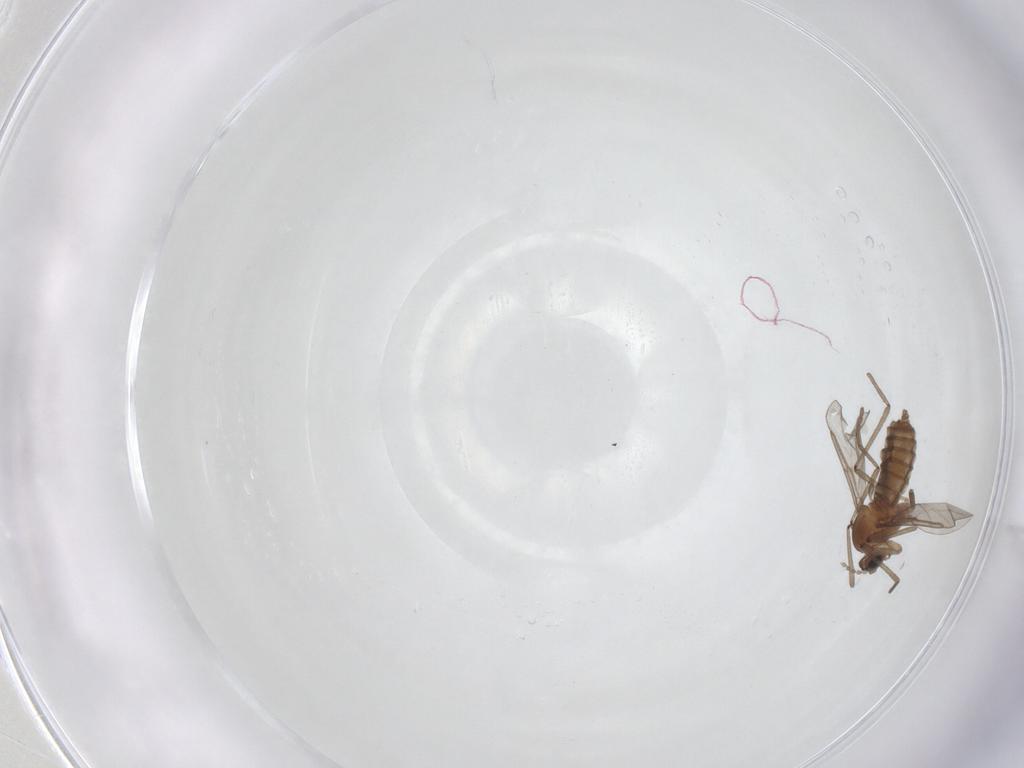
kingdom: Animalia
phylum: Arthropoda
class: Insecta
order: Diptera
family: Cecidomyiidae
